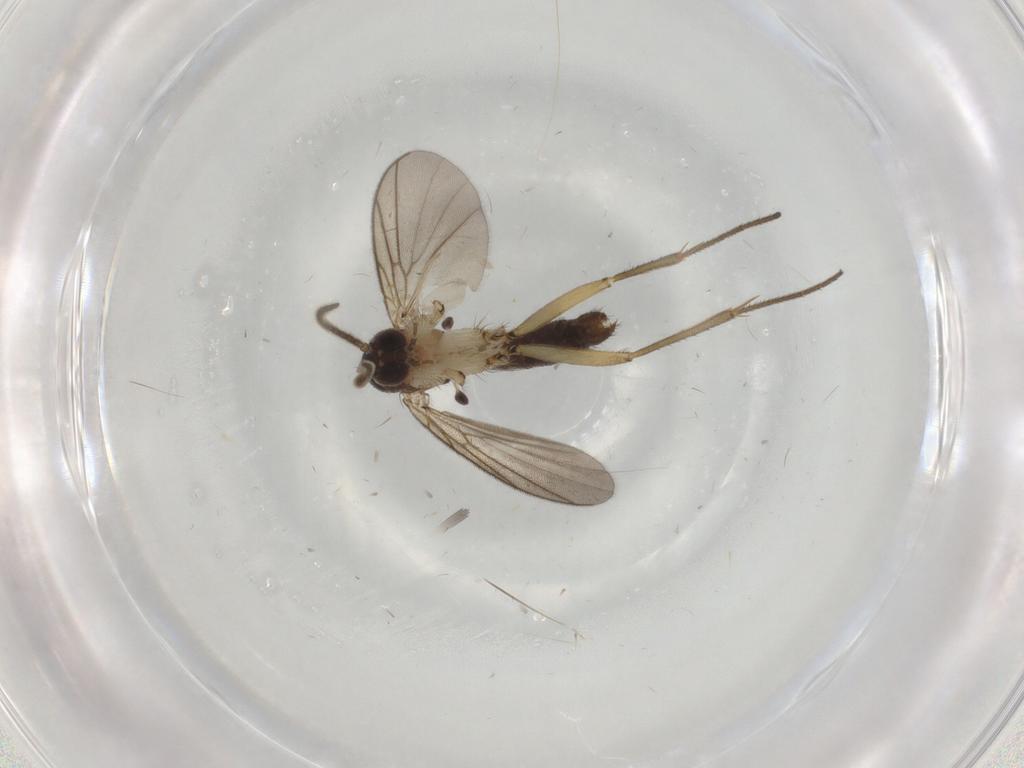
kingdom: Animalia
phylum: Arthropoda
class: Insecta
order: Diptera
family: Mycetophilidae
